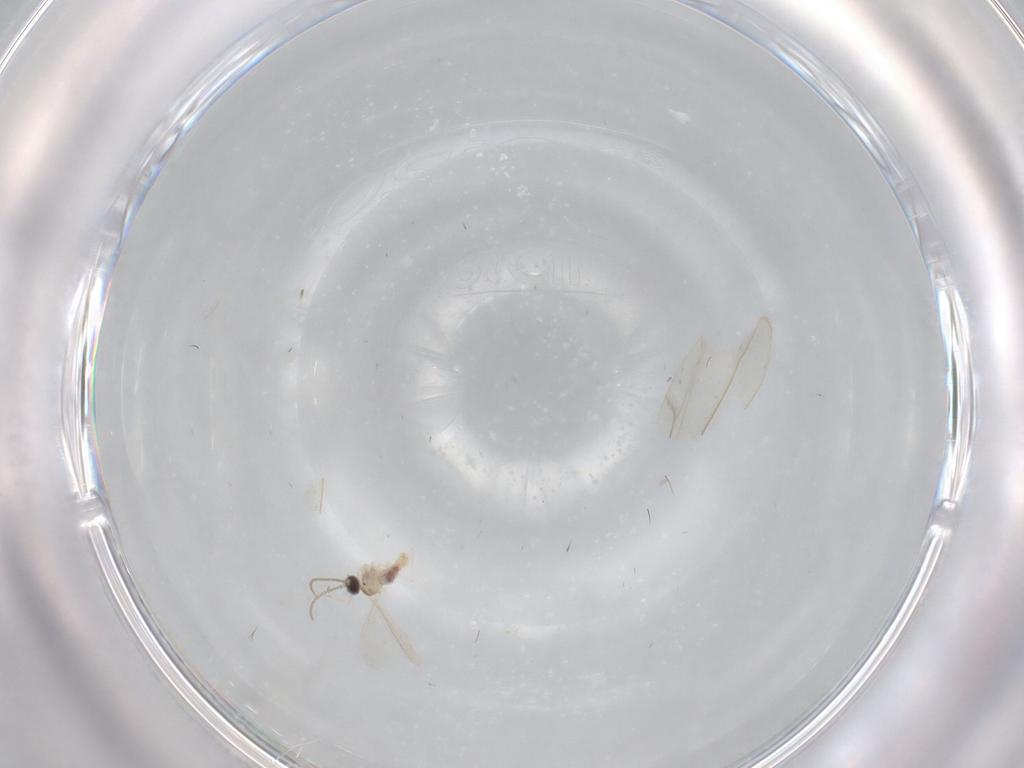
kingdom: Animalia
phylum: Arthropoda
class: Insecta
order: Diptera
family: Cecidomyiidae
